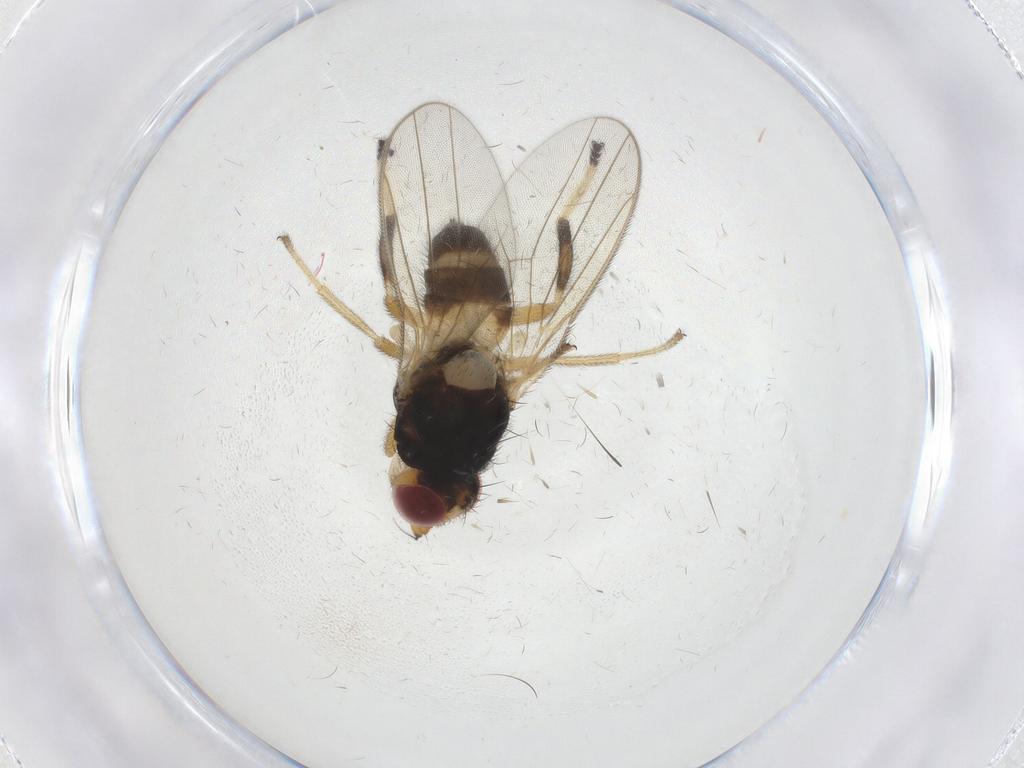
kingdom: Animalia
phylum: Arthropoda
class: Insecta
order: Diptera
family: Chloropidae
